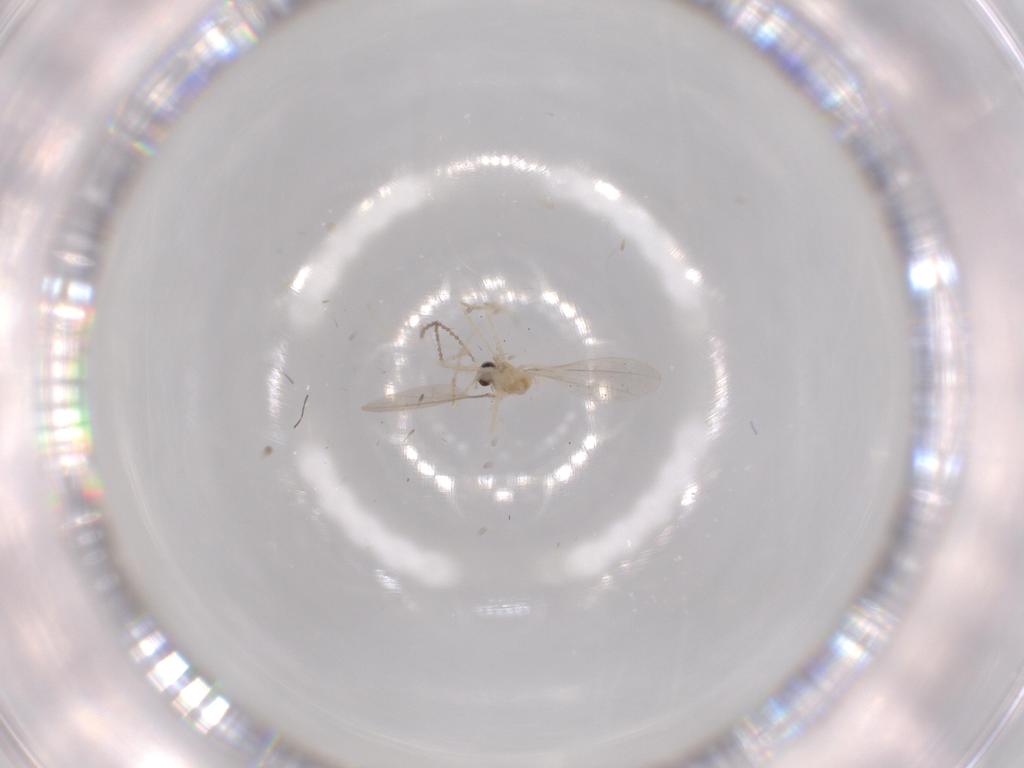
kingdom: Animalia
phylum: Arthropoda
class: Insecta
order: Diptera
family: Cecidomyiidae
